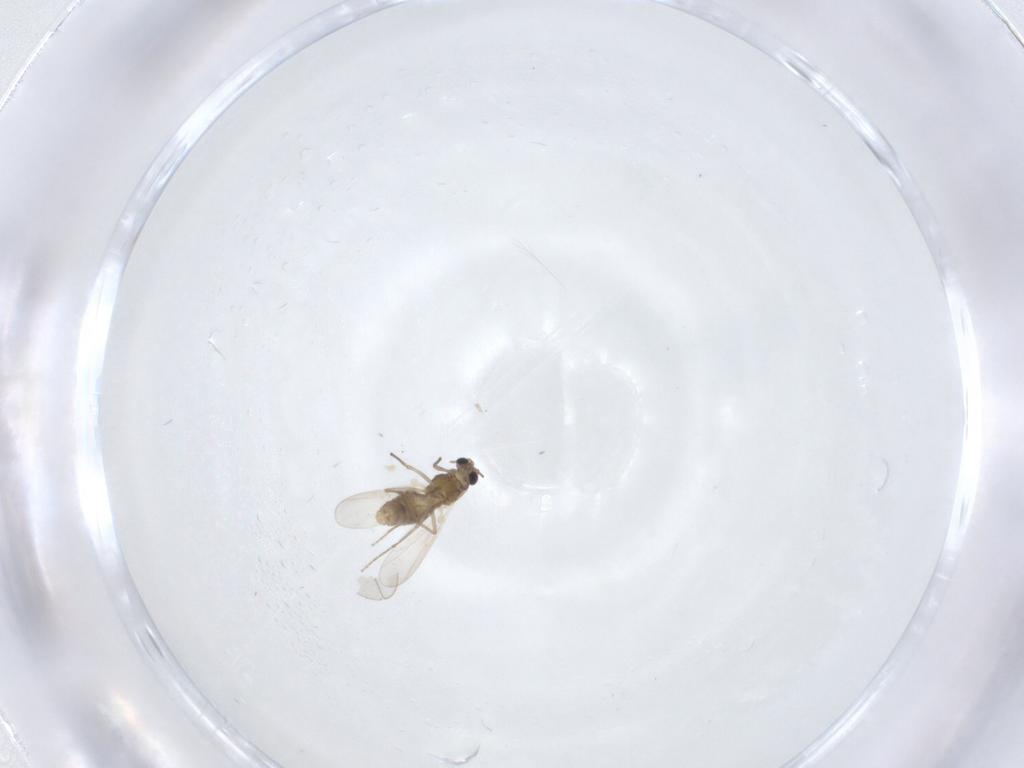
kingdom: Animalia
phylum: Arthropoda
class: Insecta
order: Diptera
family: Chironomidae
